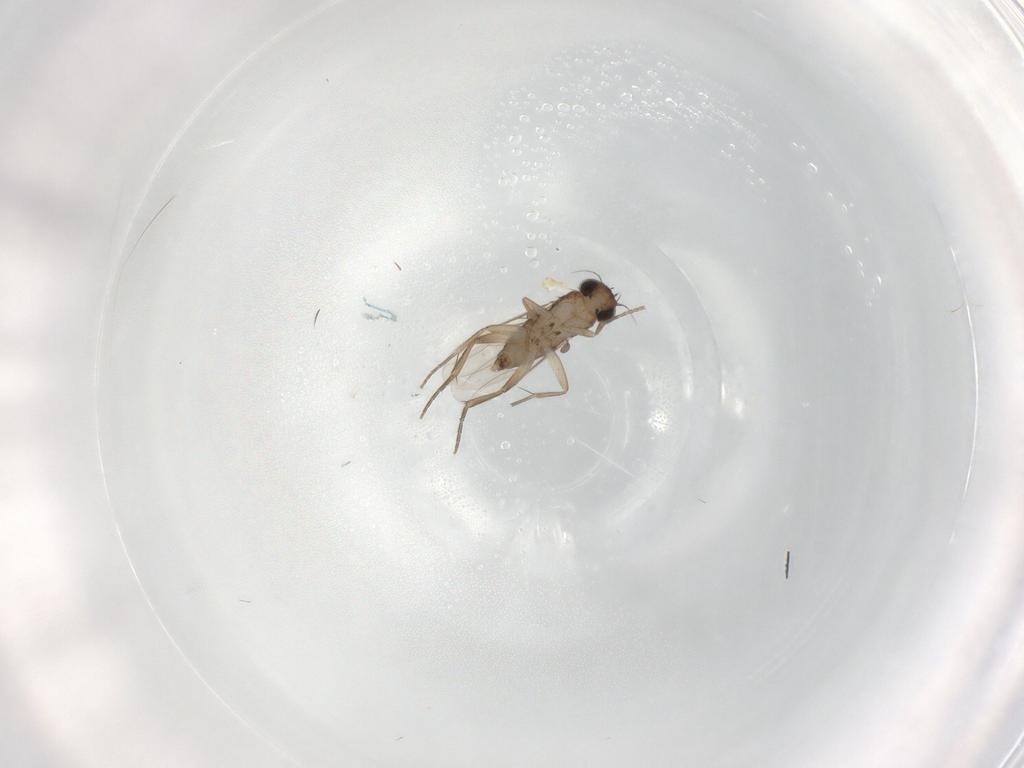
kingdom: Animalia
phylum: Arthropoda
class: Insecta
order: Diptera
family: Phoridae
